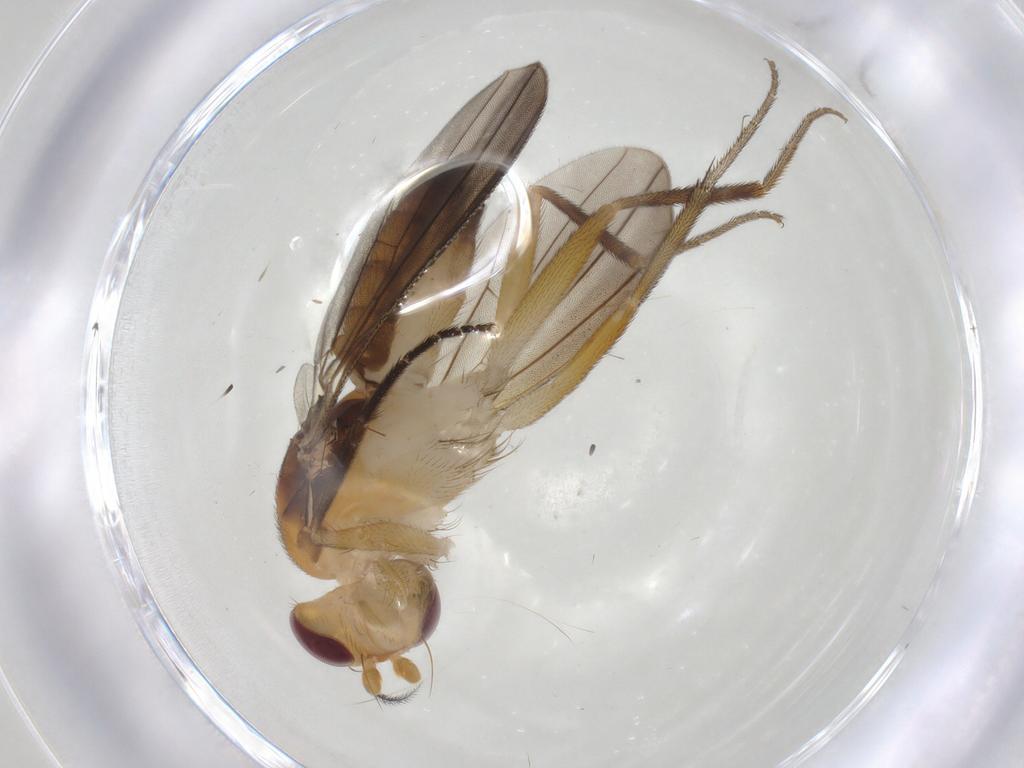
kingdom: Animalia
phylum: Arthropoda
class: Insecta
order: Diptera
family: Clusiidae
